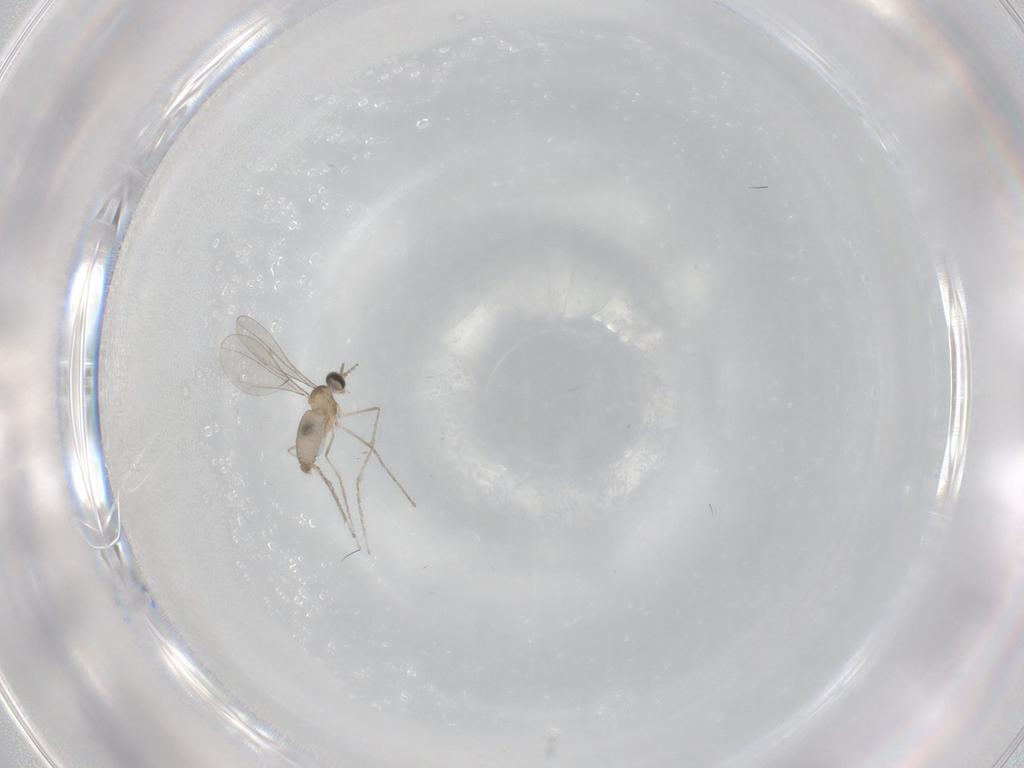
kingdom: Animalia
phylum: Arthropoda
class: Insecta
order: Diptera
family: Cecidomyiidae
